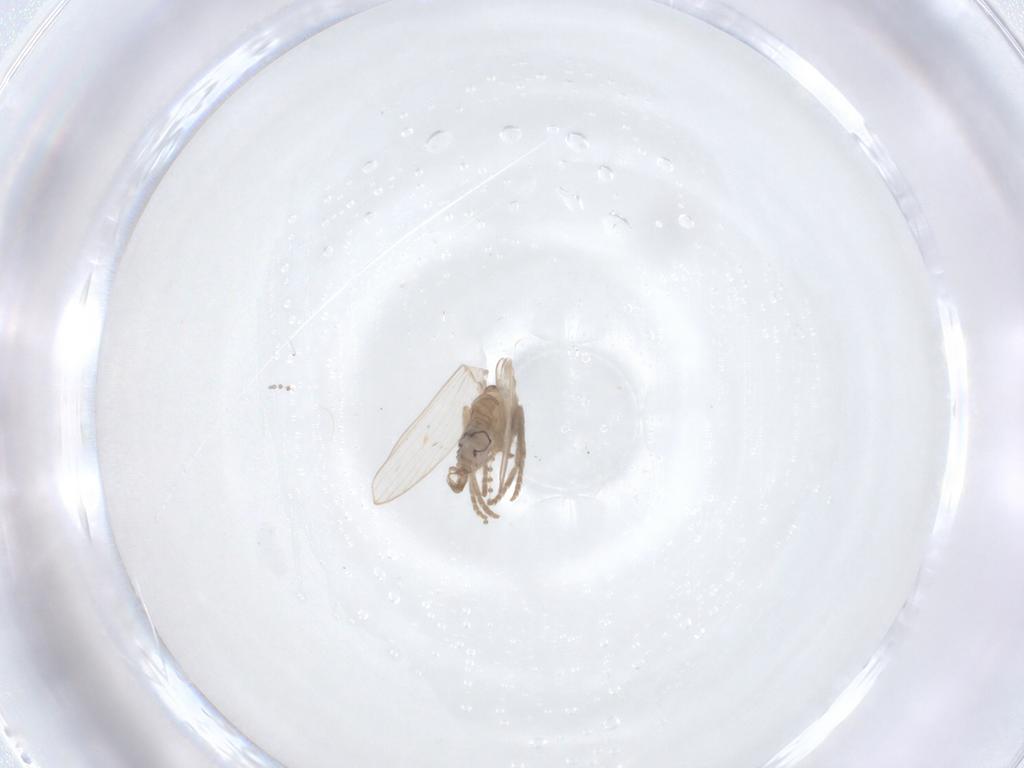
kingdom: Animalia
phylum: Arthropoda
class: Insecta
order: Diptera
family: Psychodidae
